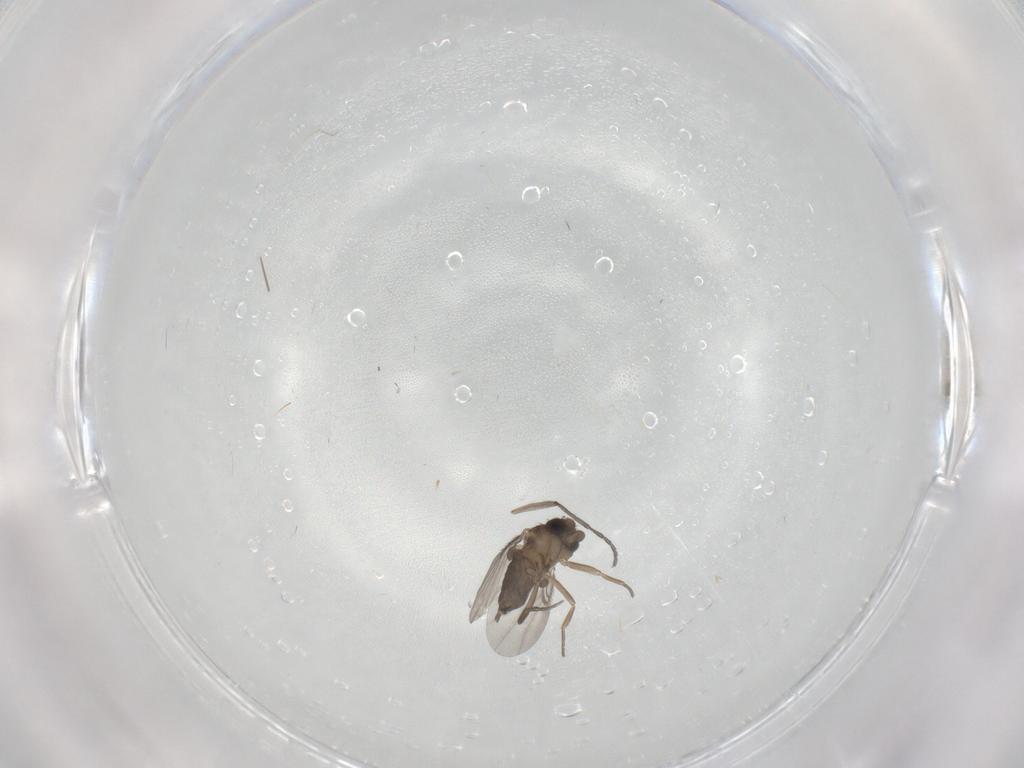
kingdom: Animalia
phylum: Arthropoda
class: Insecta
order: Diptera
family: Phoridae
